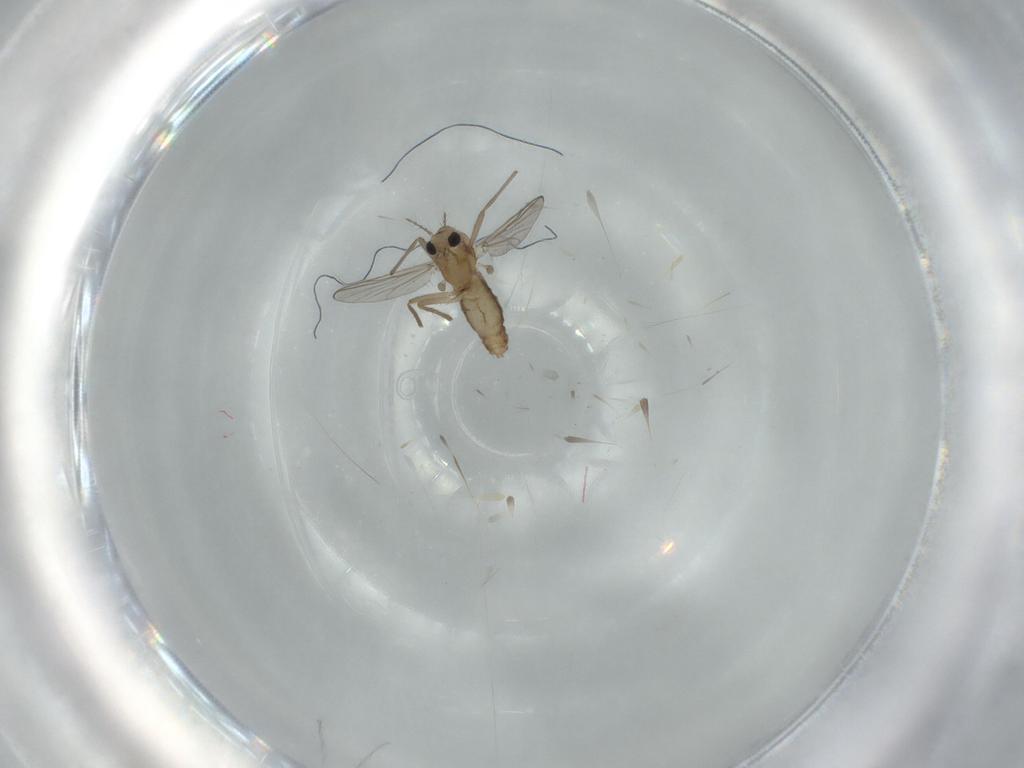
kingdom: Animalia
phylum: Arthropoda
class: Insecta
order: Diptera
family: Chironomidae
